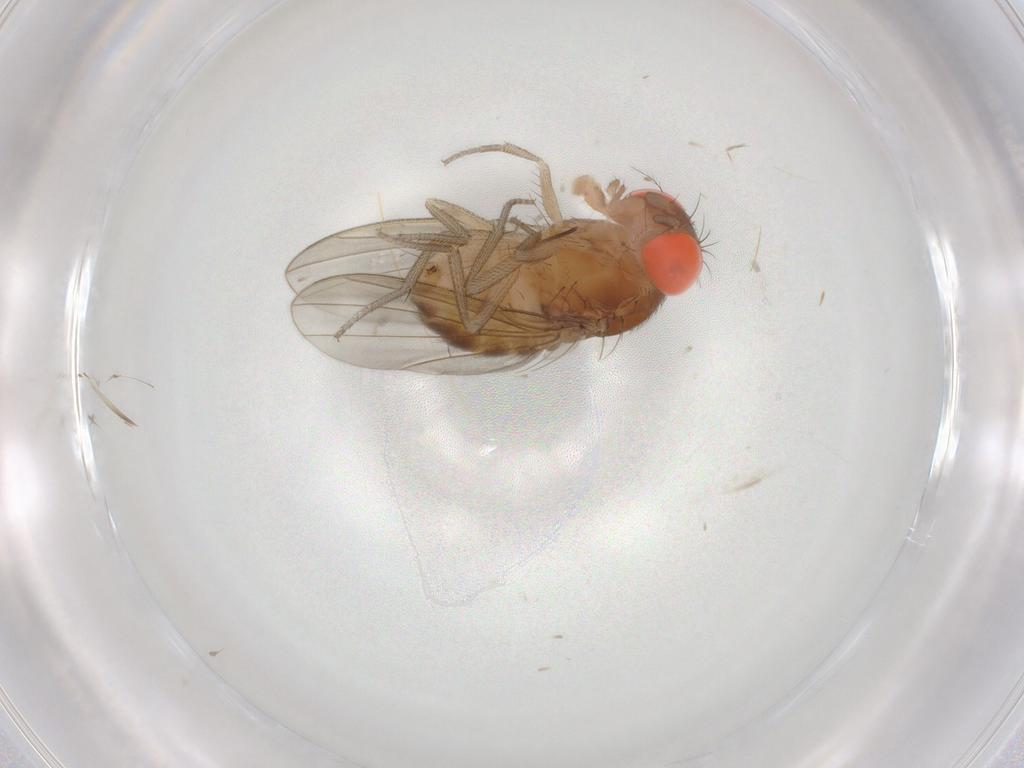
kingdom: Animalia
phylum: Arthropoda
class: Insecta
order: Diptera
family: Drosophilidae
